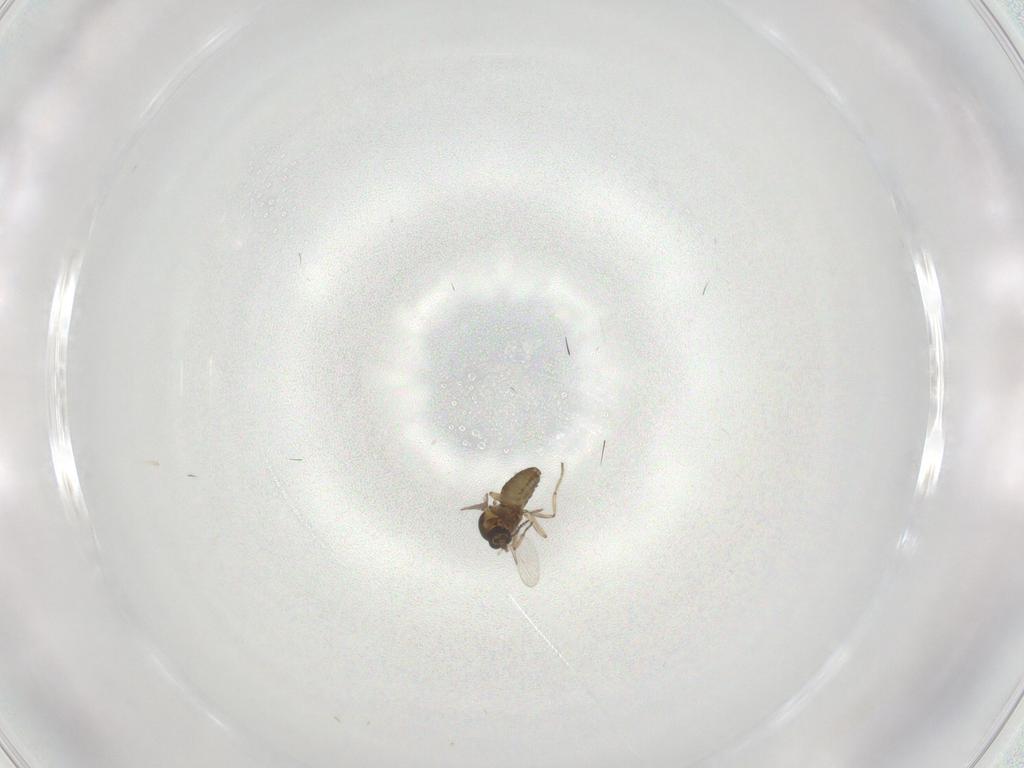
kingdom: Animalia
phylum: Arthropoda
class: Insecta
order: Diptera
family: Ceratopogonidae
